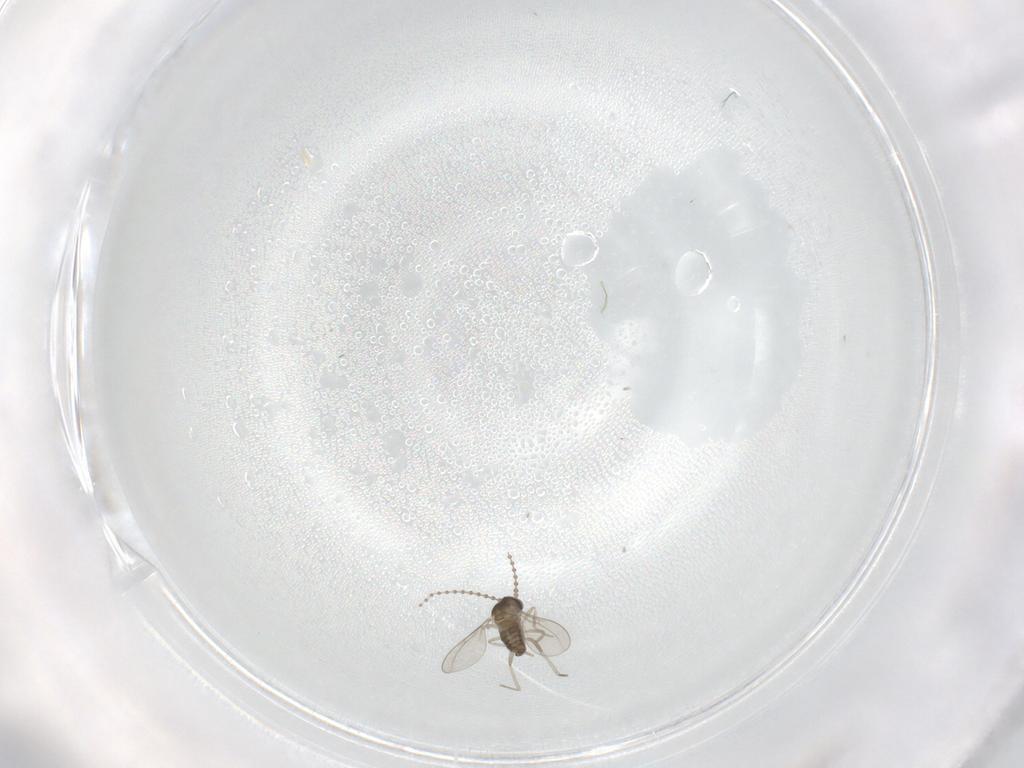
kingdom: Animalia
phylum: Arthropoda
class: Insecta
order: Diptera
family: Cecidomyiidae
